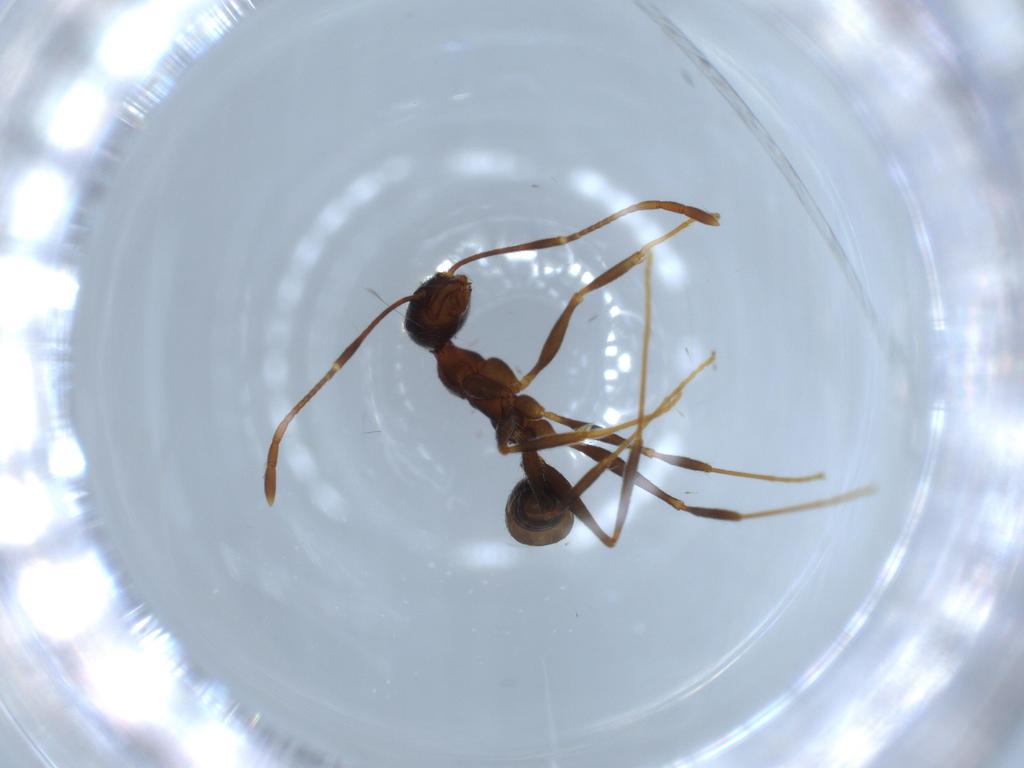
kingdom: Animalia
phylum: Arthropoda
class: Insecta
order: Hymenoptera
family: Formicidae
